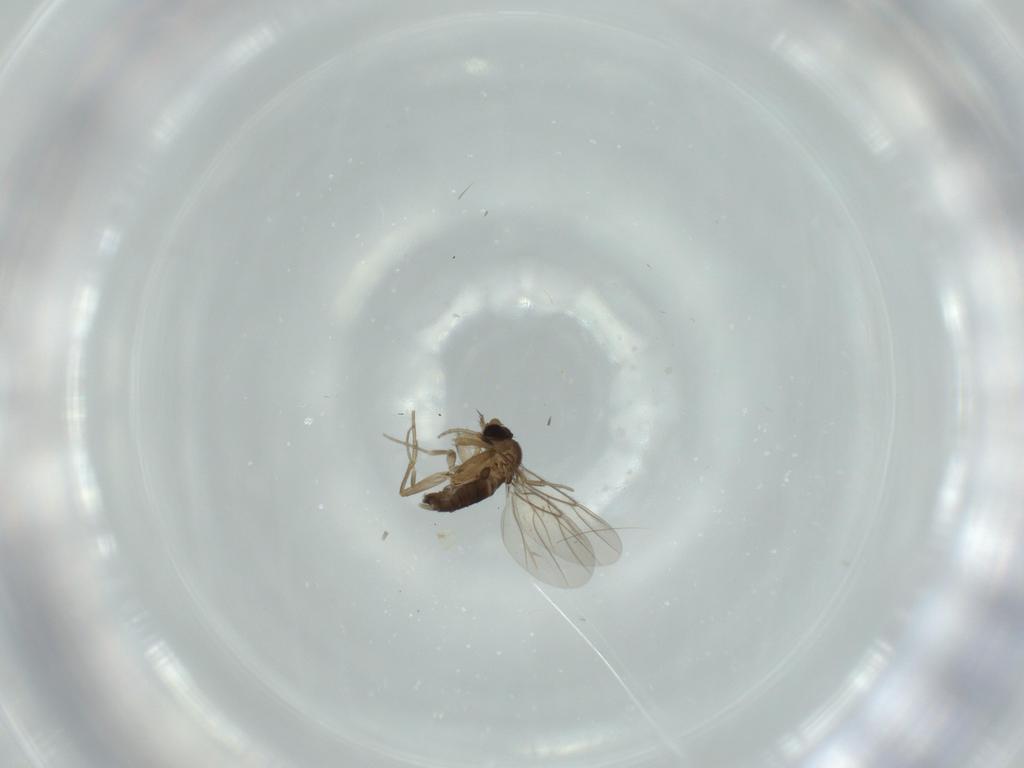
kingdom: Animalia
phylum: Arthropoda
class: Insecta
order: Diptera
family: Phoridae
